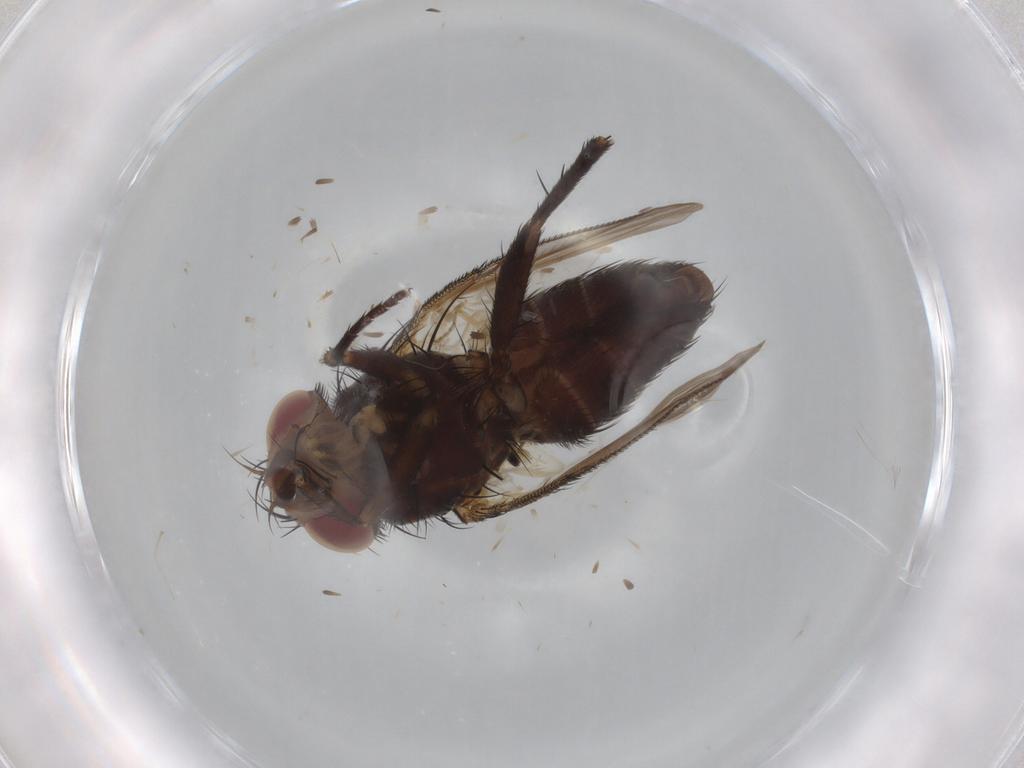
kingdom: Animalia
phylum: Arthropoda
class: Insecta
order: Diptera
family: Tachinidae
